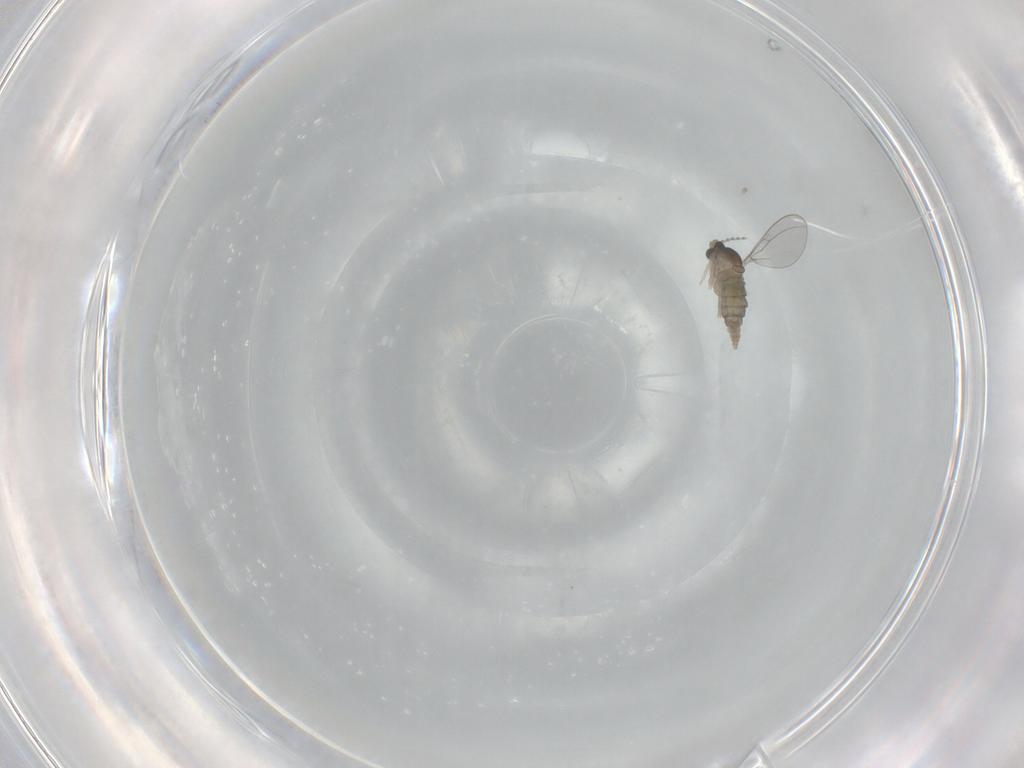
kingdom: Animalia
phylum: Arthropoda
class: Insecta
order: Diptera
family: Cecidomyiidae
